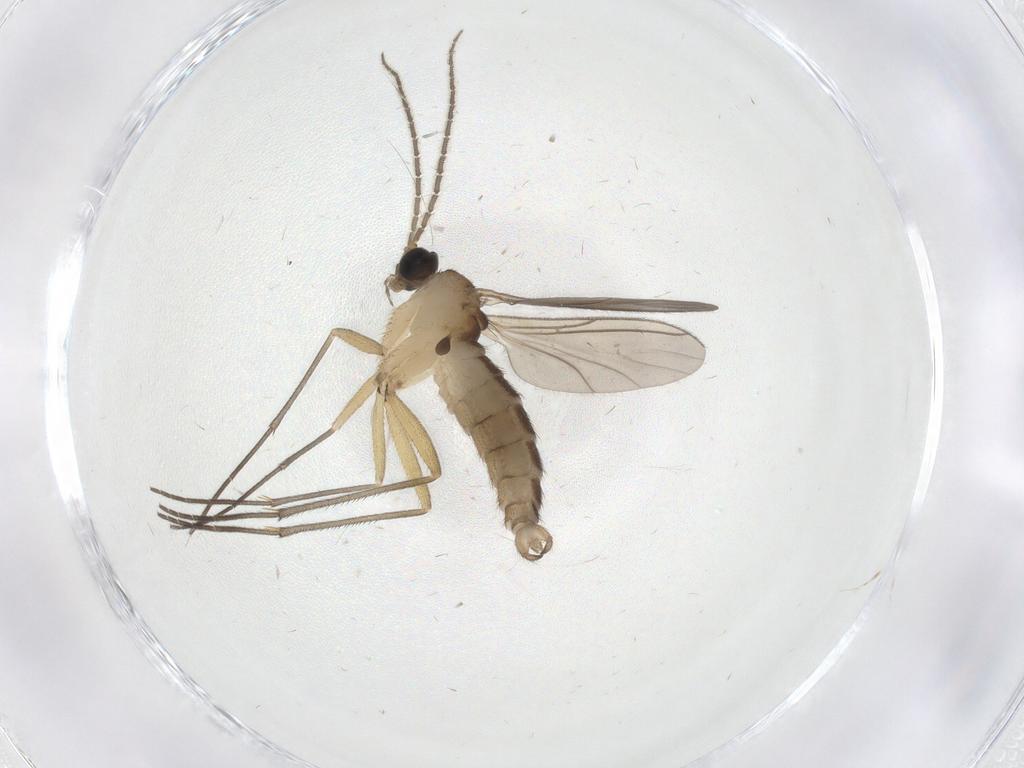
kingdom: Animalia
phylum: Arthropoda
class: Insecta
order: Diptera
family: Sciaridae
